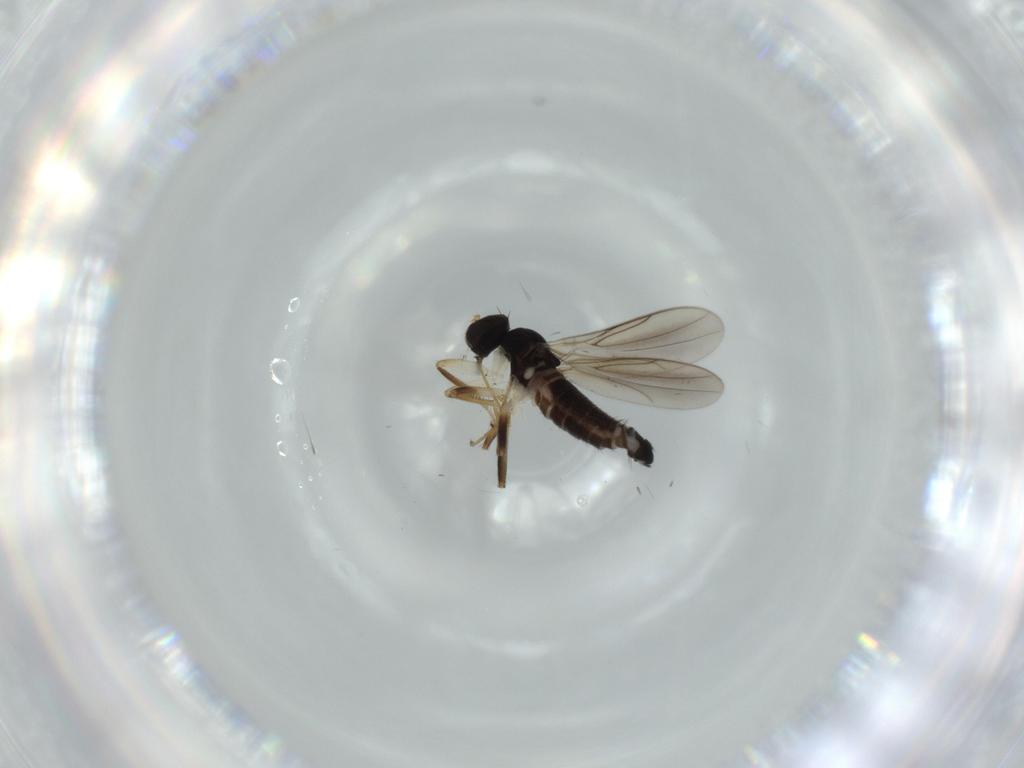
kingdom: Animalia
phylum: Arthropoda
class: Insecta
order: Diptera
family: Hybotidae
